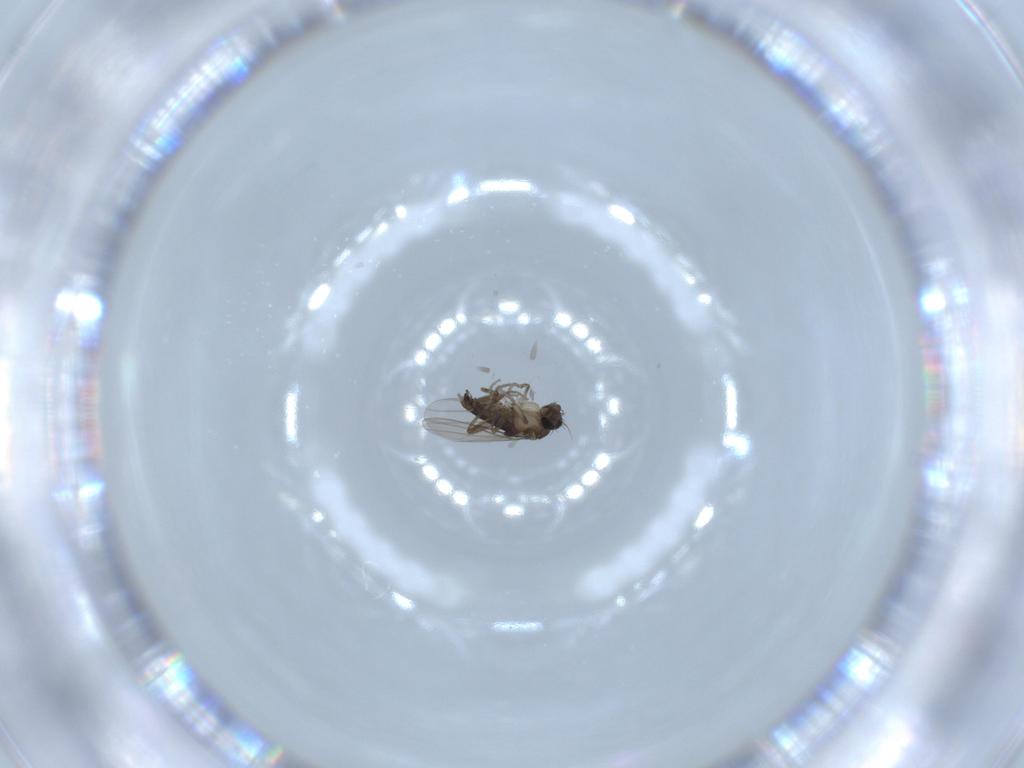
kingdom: Animalia
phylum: Arthropoda
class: Insecta
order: Diptera
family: Phoridae
